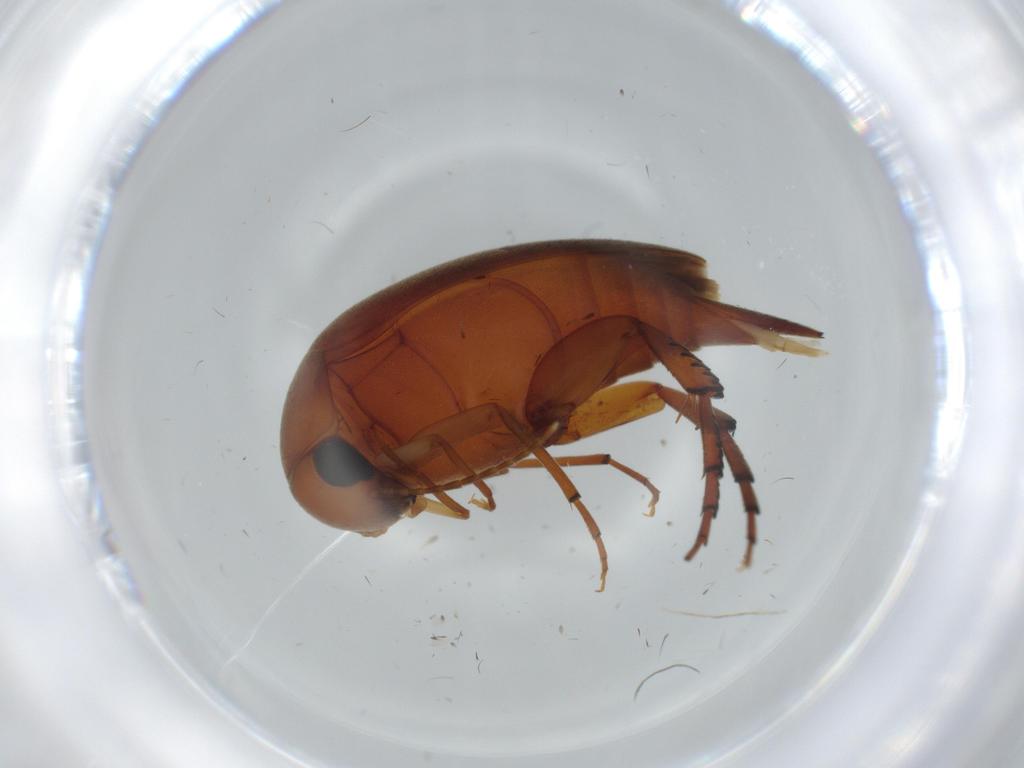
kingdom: Animalia
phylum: Arthropoda
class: Insecta
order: Coleoptera
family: Mordellidae
